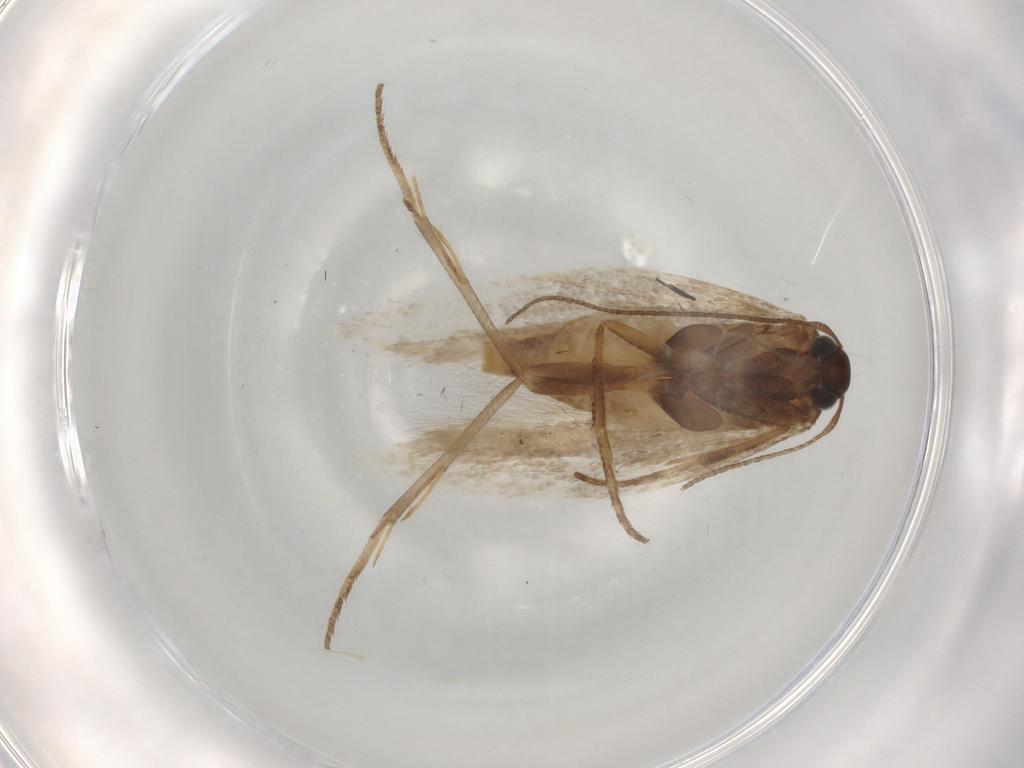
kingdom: Animalia
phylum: Arthropoda
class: Insecta
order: Lepidoptera
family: Gelechiidae
